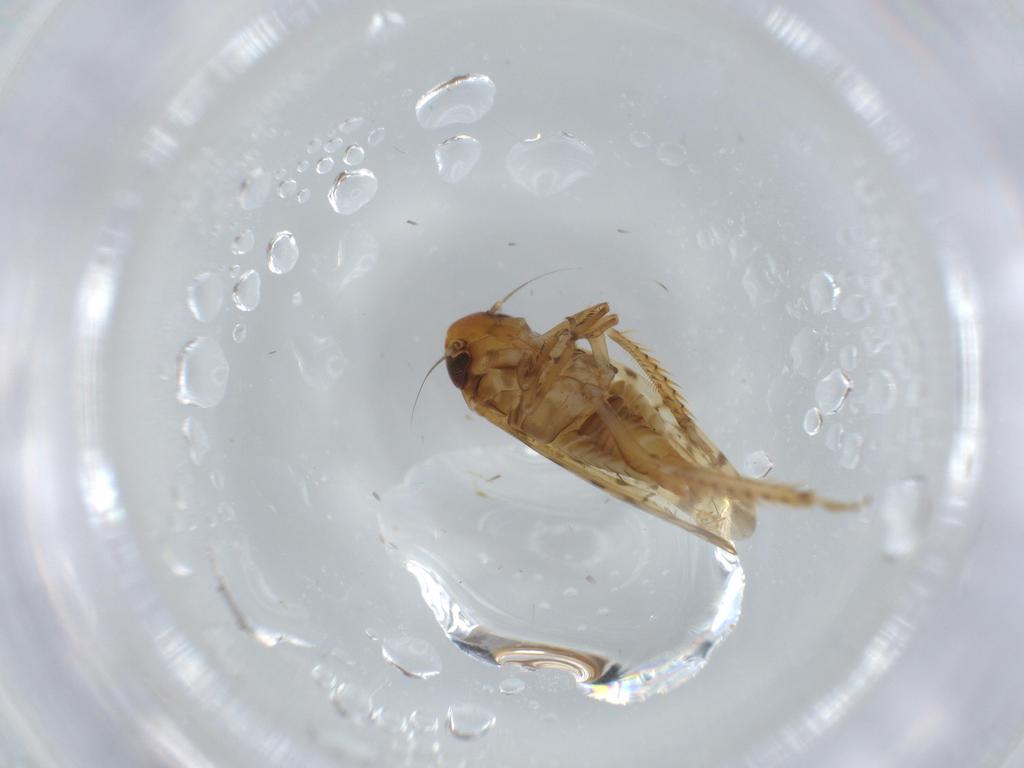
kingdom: Animalia
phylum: Arthropoda
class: Insecta
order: Hemiptera
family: Cicadellidae
